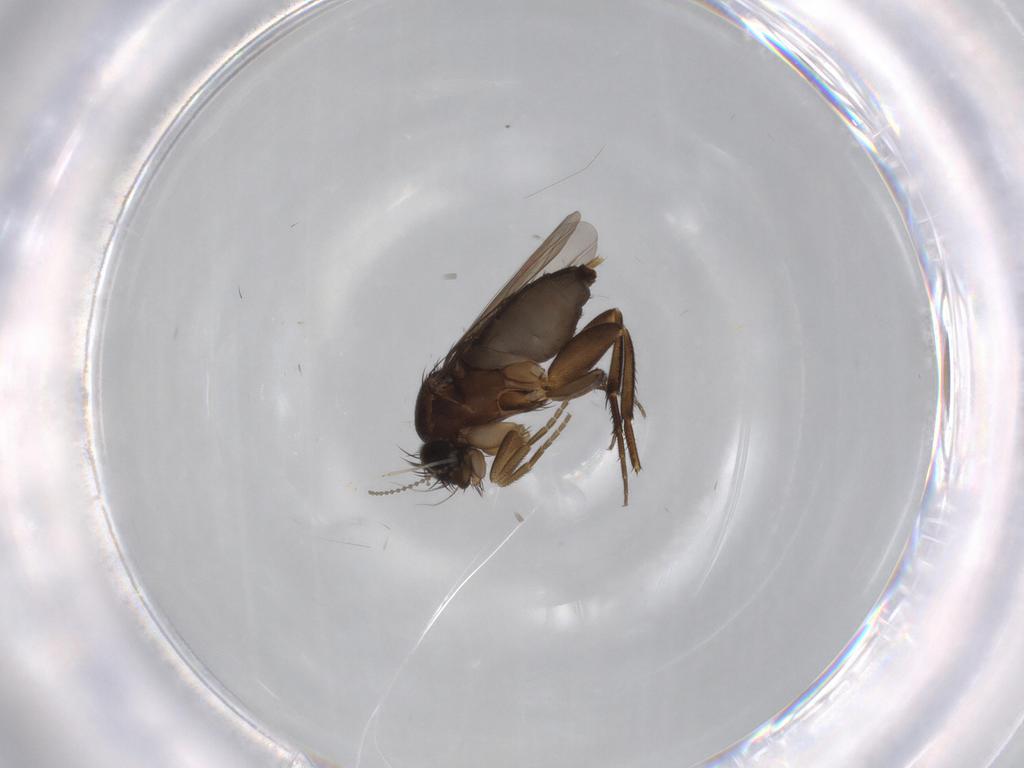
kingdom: Animalia
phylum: Arthropoda
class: Insecta
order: Diptera
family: Phoridae
